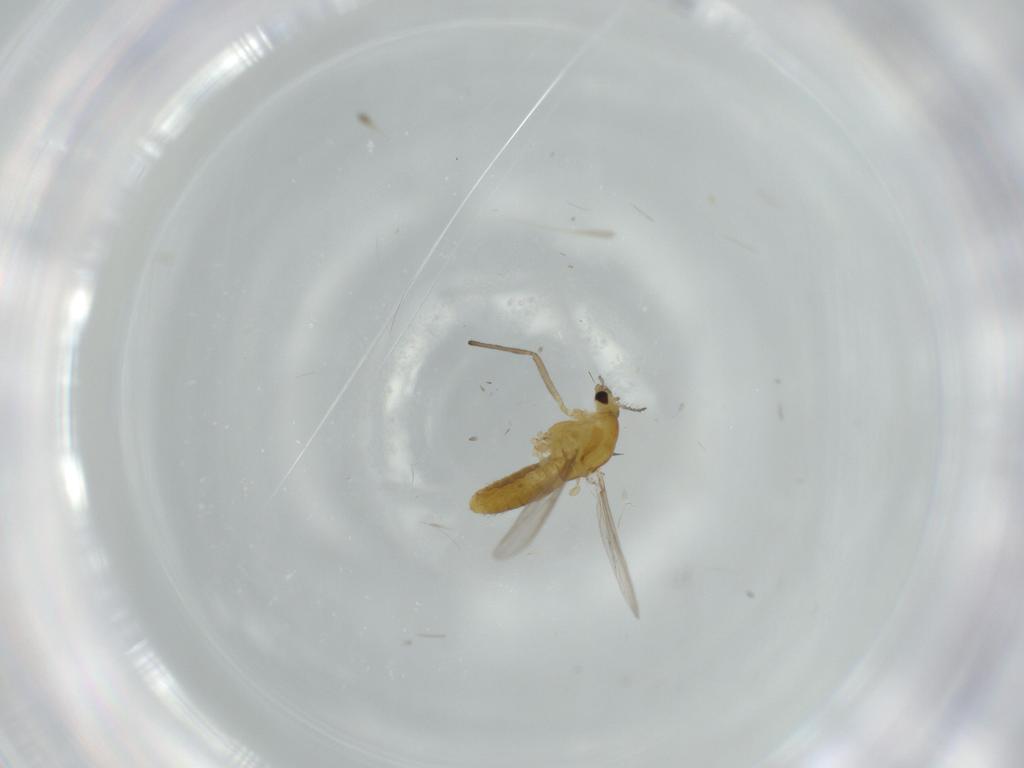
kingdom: Animalia
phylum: Arthropoda
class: Insecta
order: Diptera
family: Chironomidae
